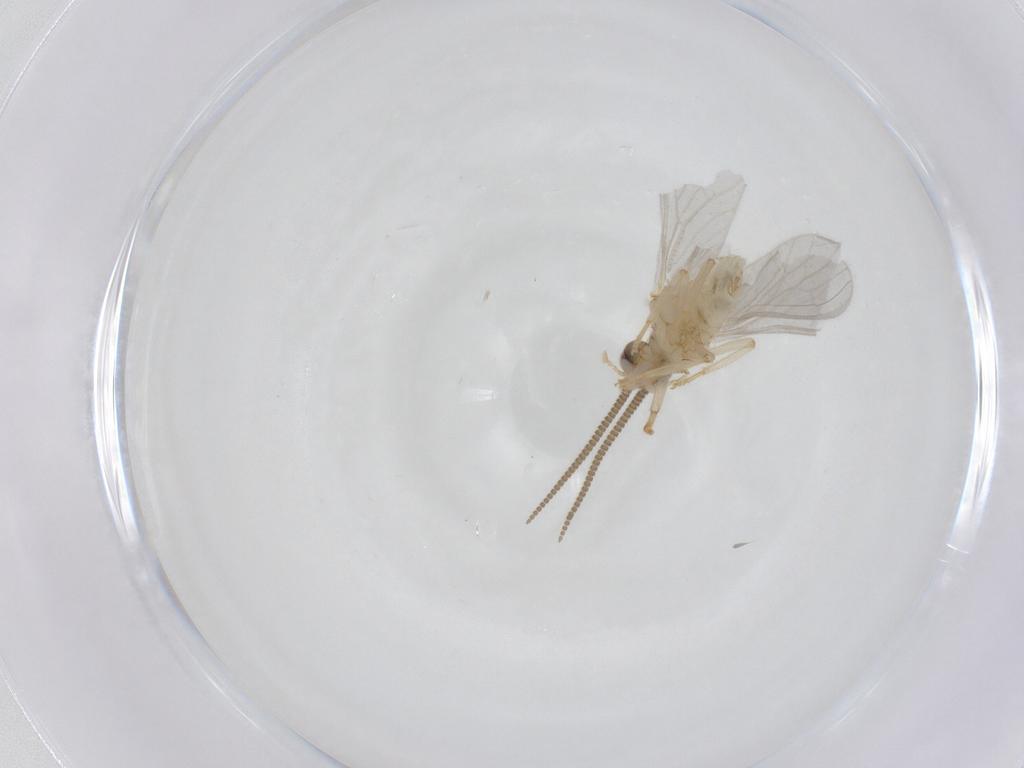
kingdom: Animalia
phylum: Arthropoda
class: Insecta
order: Neuroptera
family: Coniopterygidae
